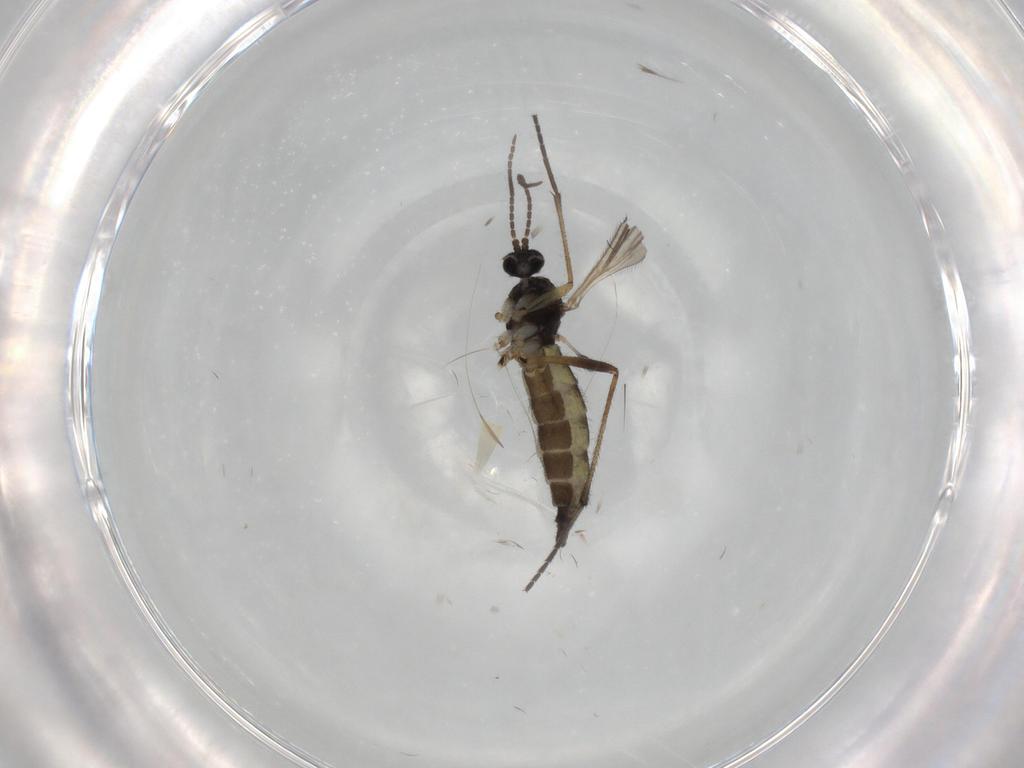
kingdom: Animalia
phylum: Arthropoda
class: Insecta
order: Diptera
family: Sciaridae
